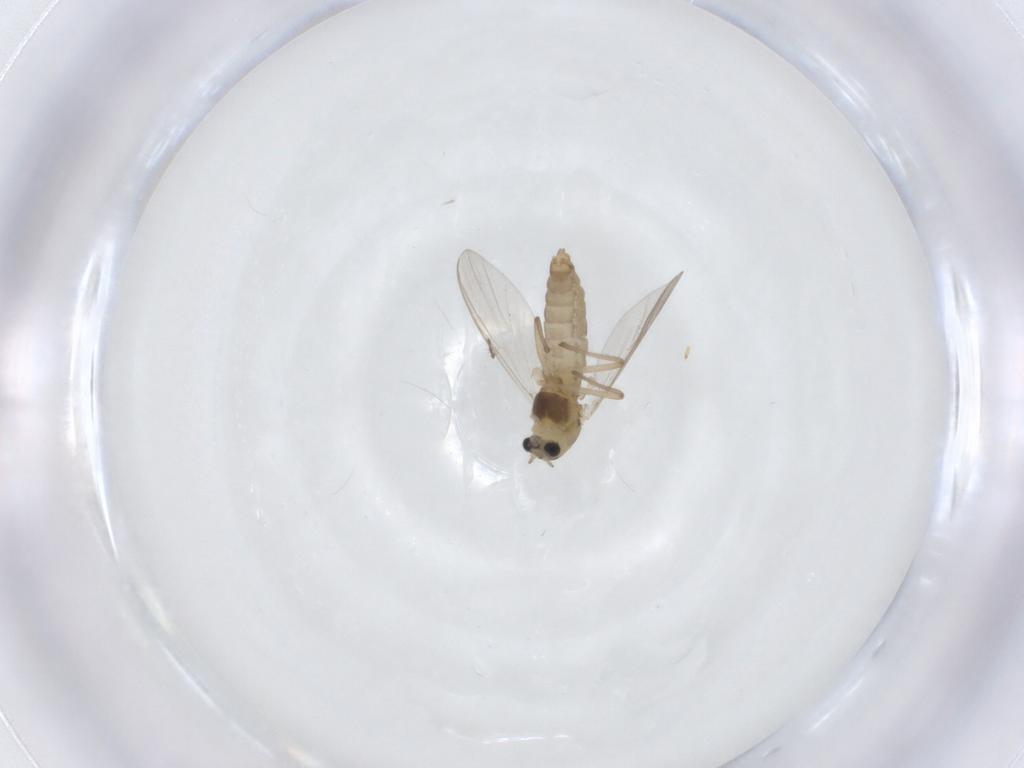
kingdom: Animalia
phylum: Arthropoda
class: Insecta
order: Diptera
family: Chironomidae
